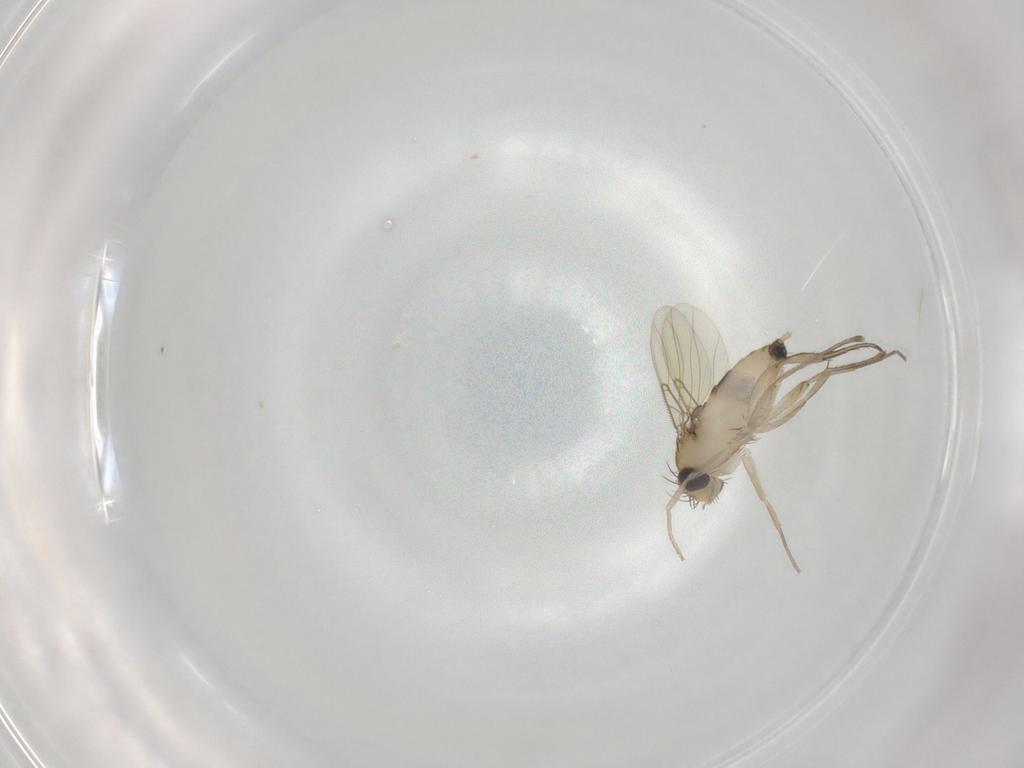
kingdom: Animalia
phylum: Arthropoda
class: Insecta
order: Diptera
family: Phoridae
